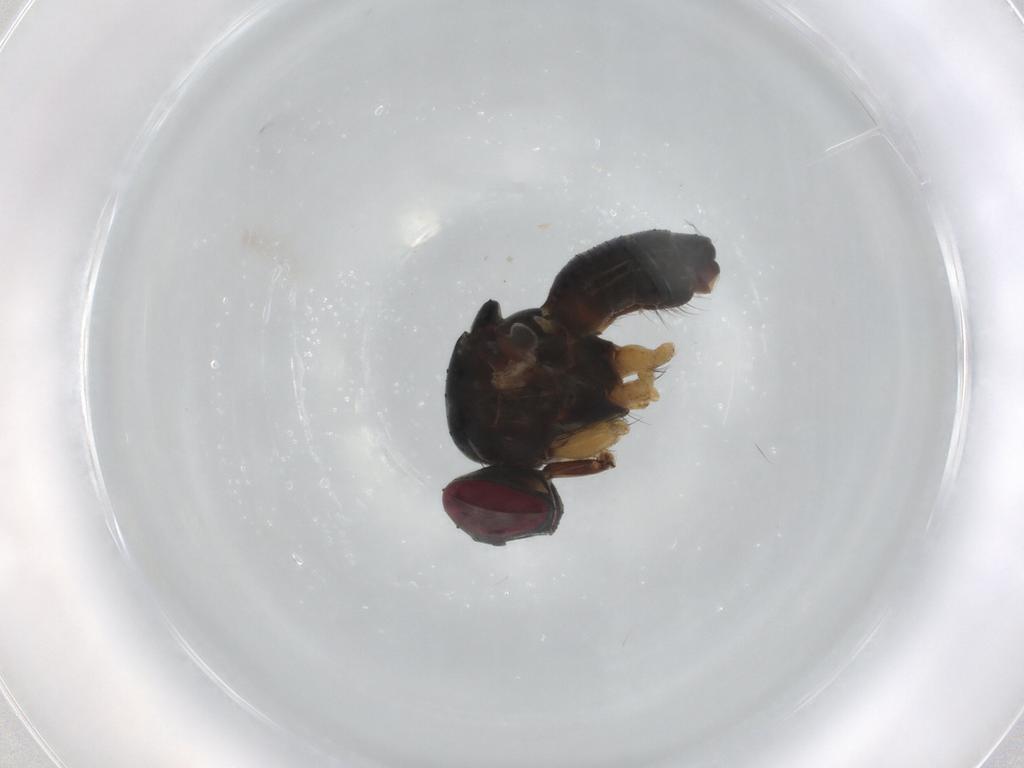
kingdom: Animalia
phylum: Arthropoda
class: Insecta
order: Diptera
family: Muscidae
